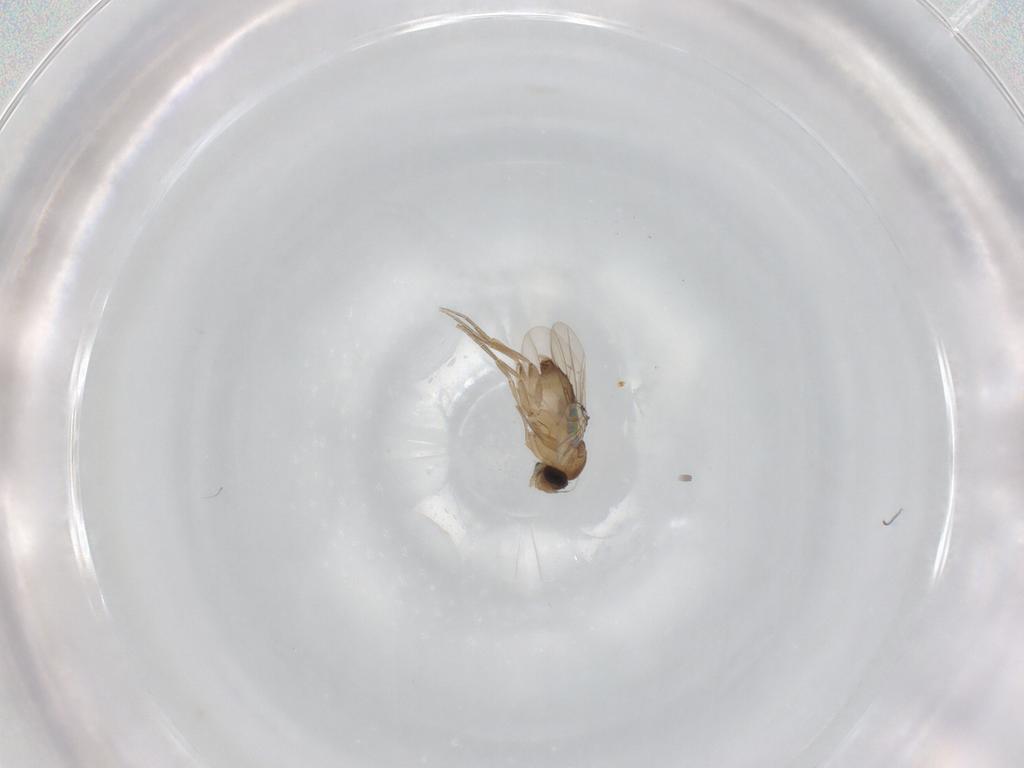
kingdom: Animalia
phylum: Arthropoda
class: Insecta
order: Diptera
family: Phoridae
